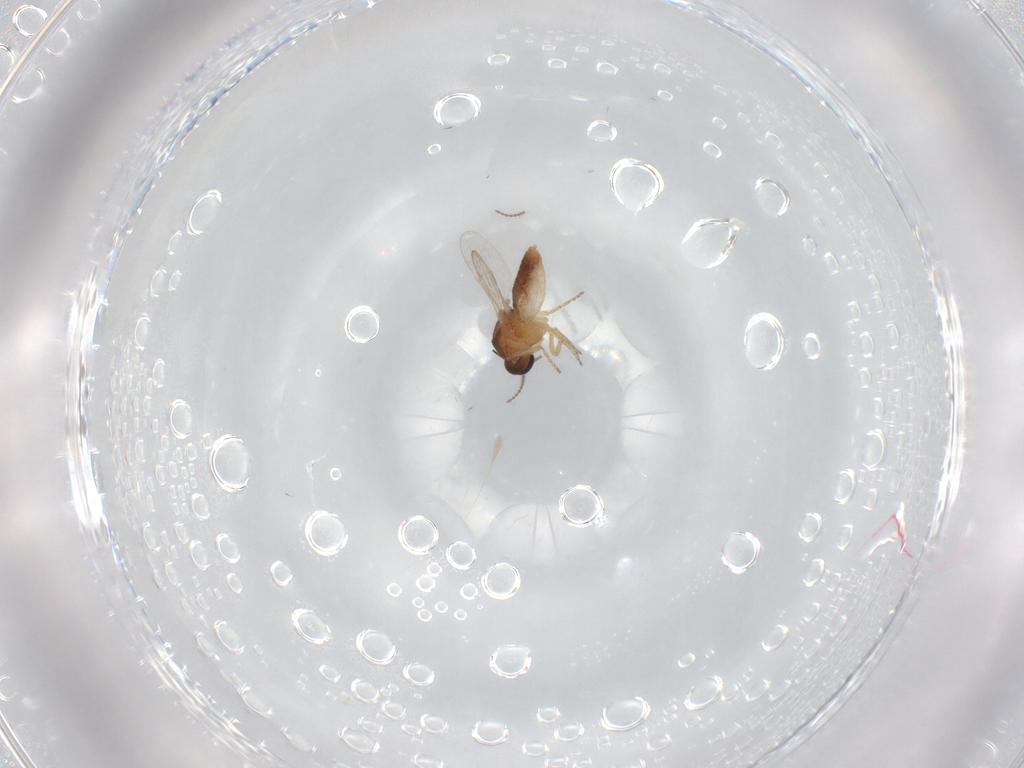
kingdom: Animalia
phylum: Arthropoda
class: Insecta
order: Diptera
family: Ceratopogonidae
